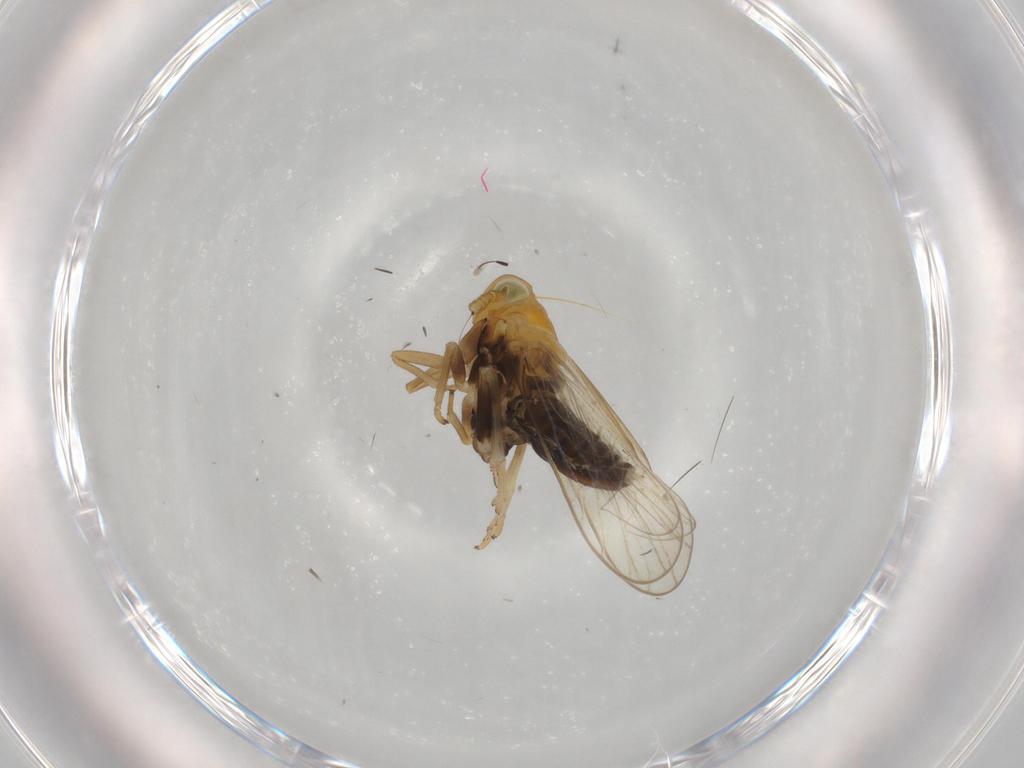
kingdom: Animalia
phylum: Arthropoda
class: Insecta
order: Hemiptera
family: Delphacidae
